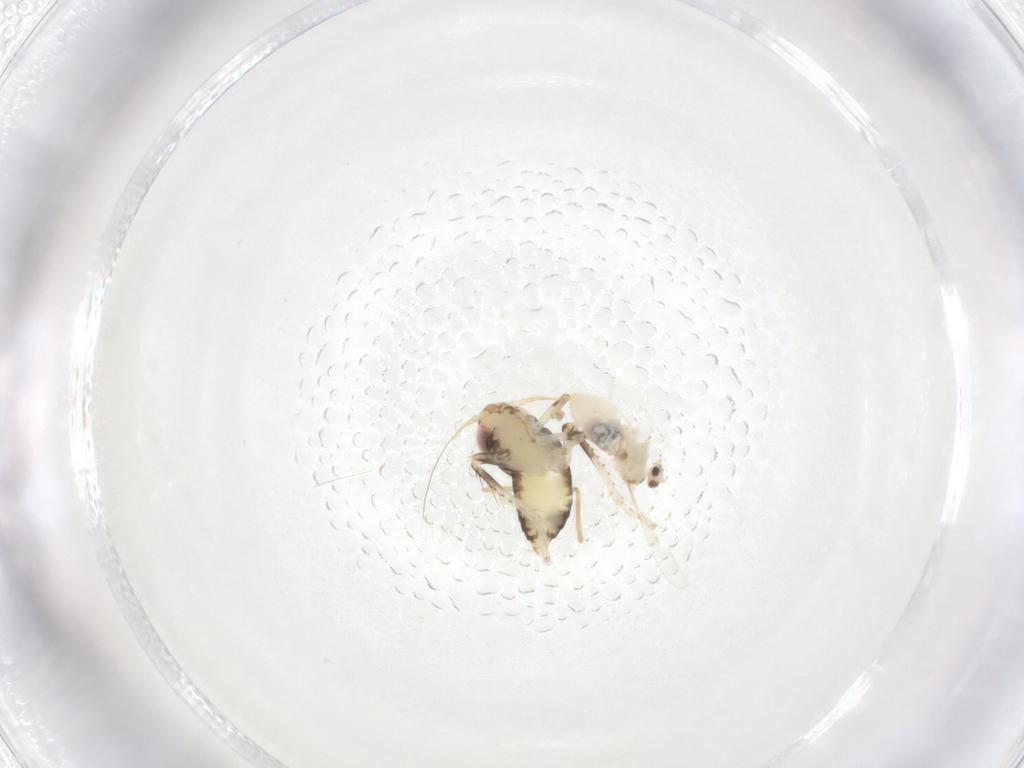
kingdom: Animalia
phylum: Arthropoda
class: Insecta
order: Hemiptera
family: Cicadellidae
